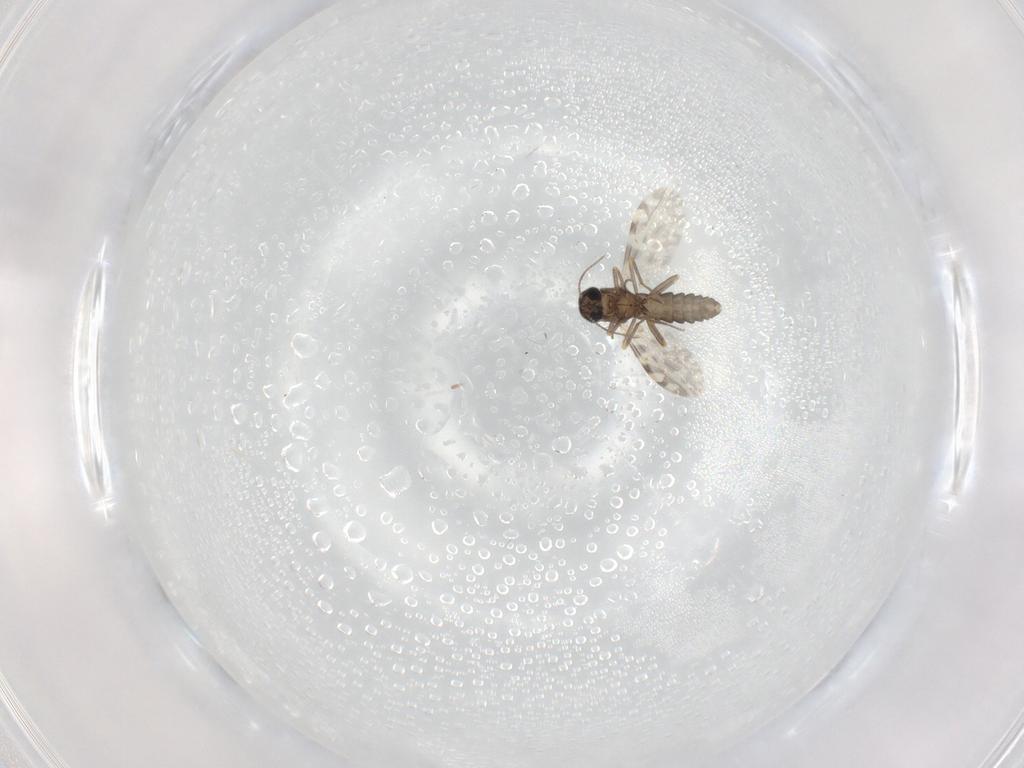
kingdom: Animalia
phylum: Arthropoda
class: Insecta
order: Diptera
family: Ceratopogonidae
